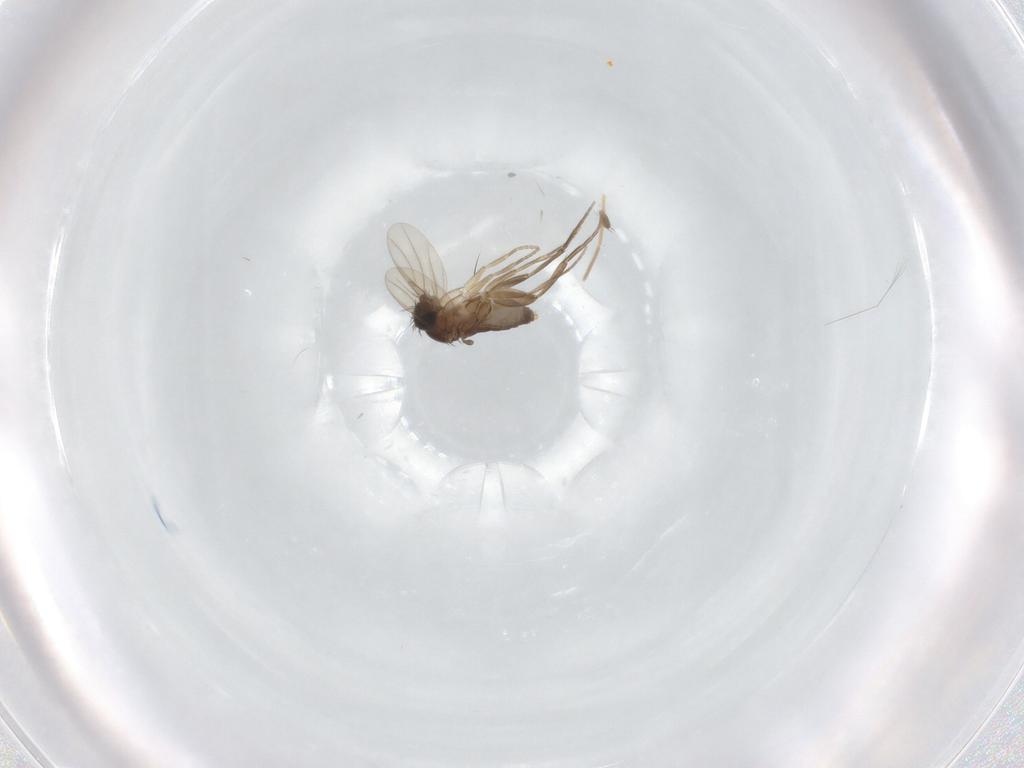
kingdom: Animalia
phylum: Arthropoda
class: Insecta
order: Diptera
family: Phoridae
